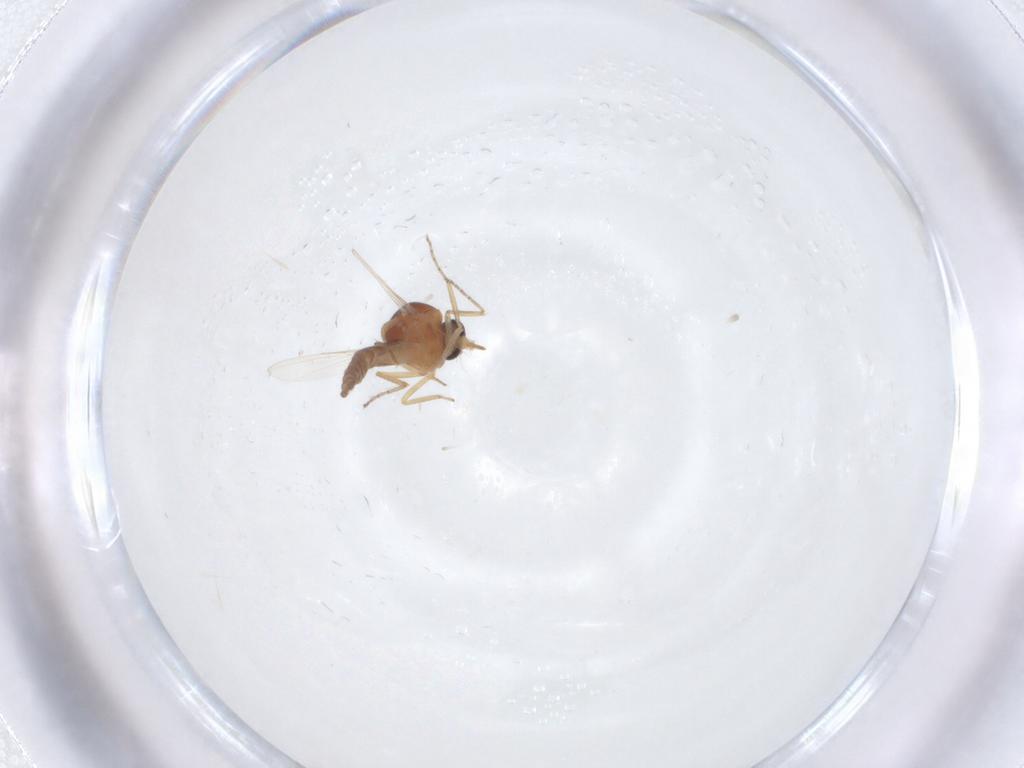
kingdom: Animalia
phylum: Arthropoda
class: Insecta
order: Diptera
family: Ceratopogonidae
